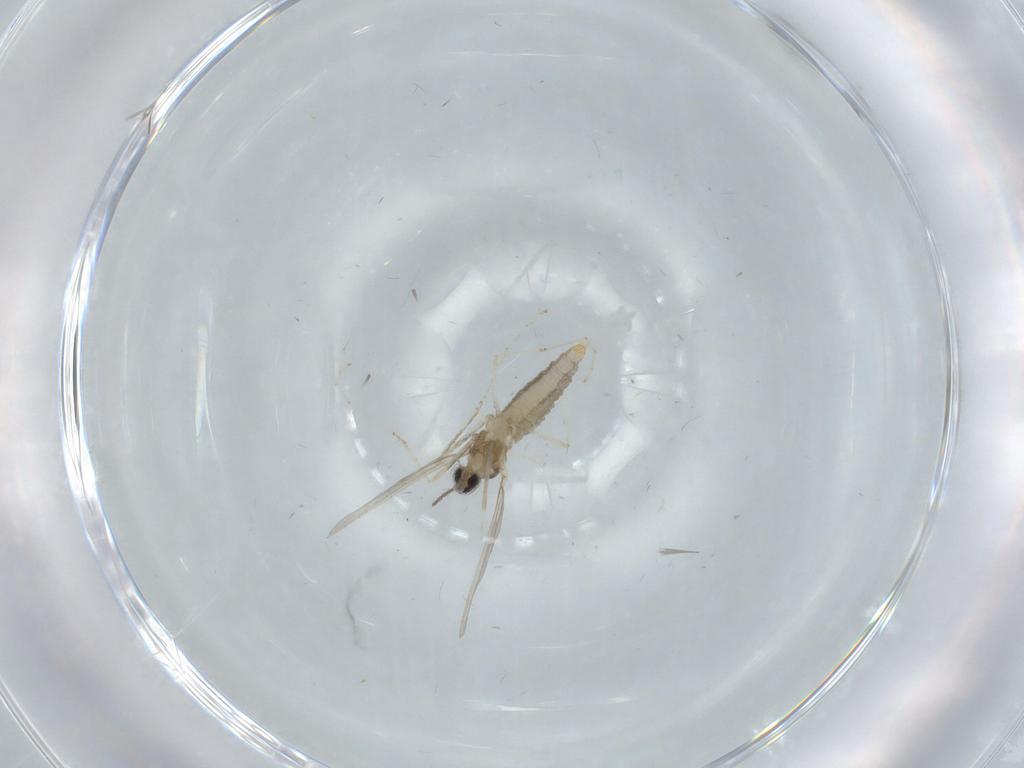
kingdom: Animalia
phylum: Arthropoda
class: Insecta
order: Diptera
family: Cecidomyiidae
